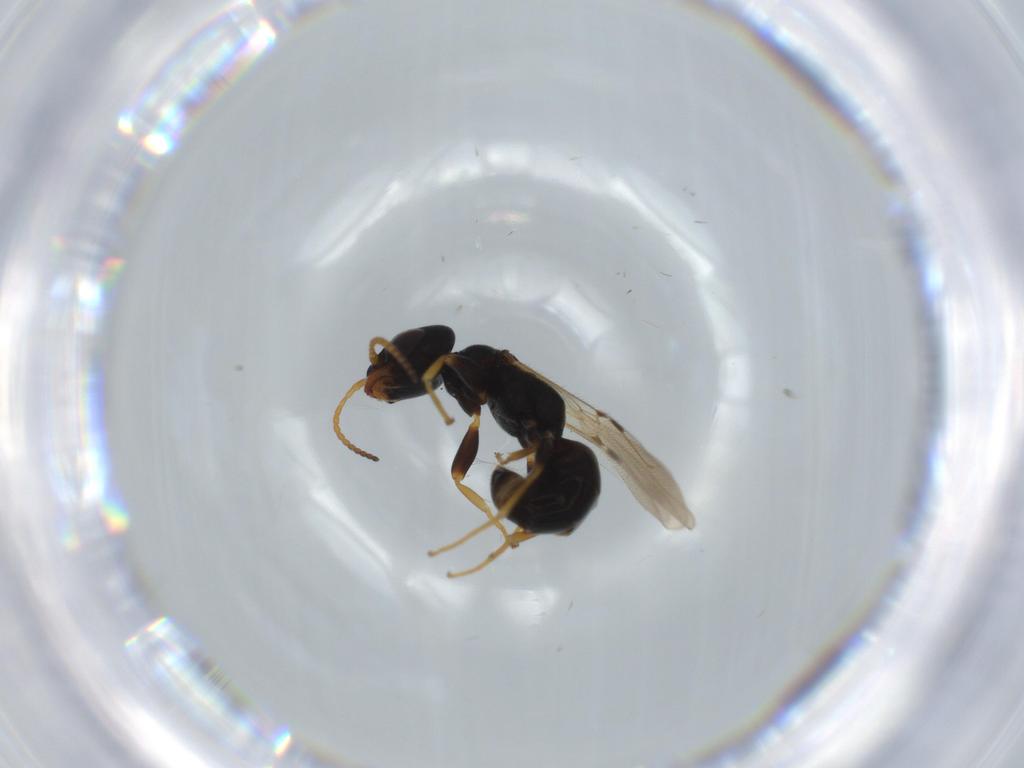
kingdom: Animalia
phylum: Arthropoda
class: Insecta
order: Hymenoptera
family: Bethylidae
